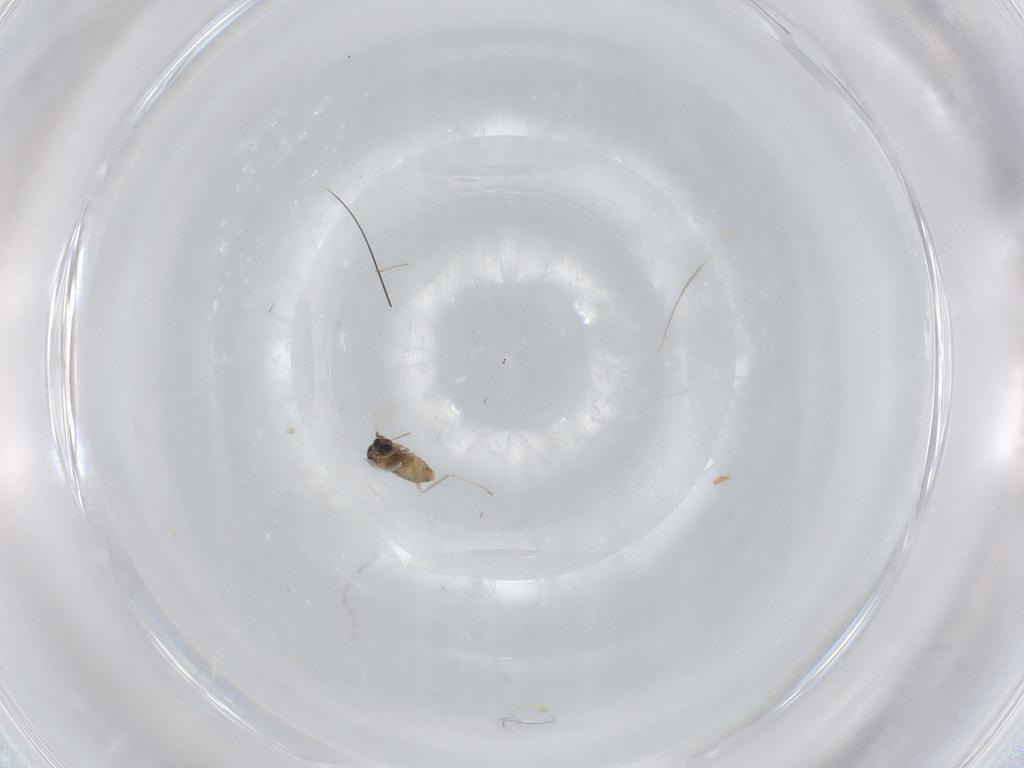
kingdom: Animalia
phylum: Arthropoda
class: Insecta
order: Diptera
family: Cecidomyiidae
